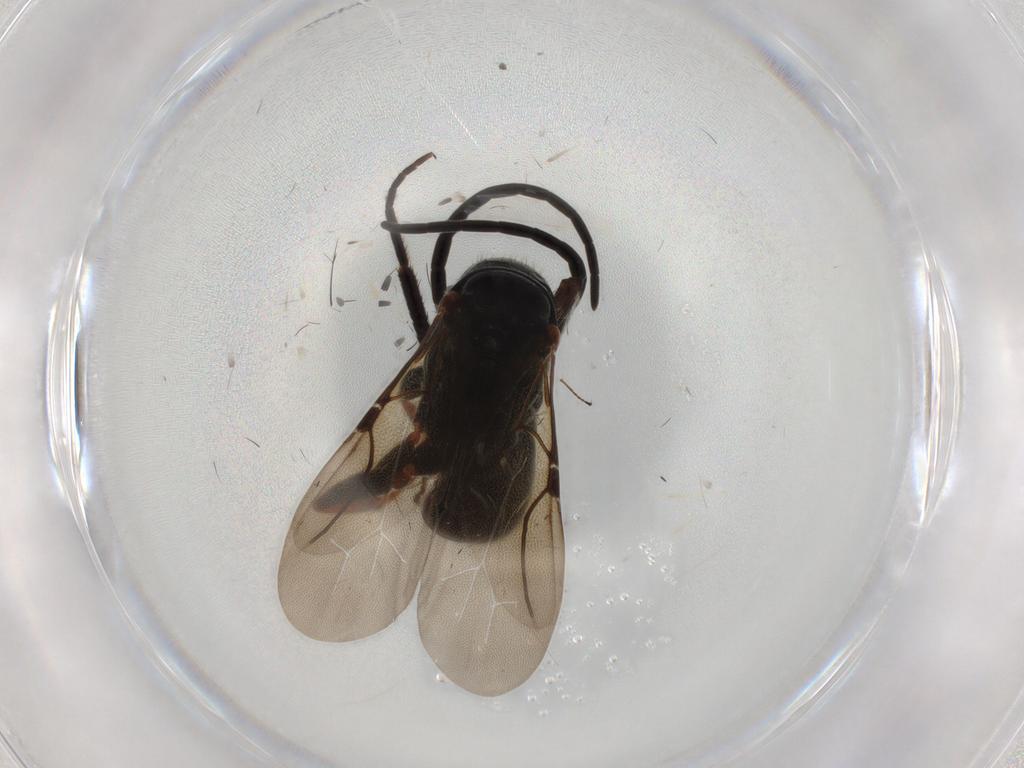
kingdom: Animalia
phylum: Arthropoda
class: Insecta
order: Hymenoptera
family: Bethylidae
